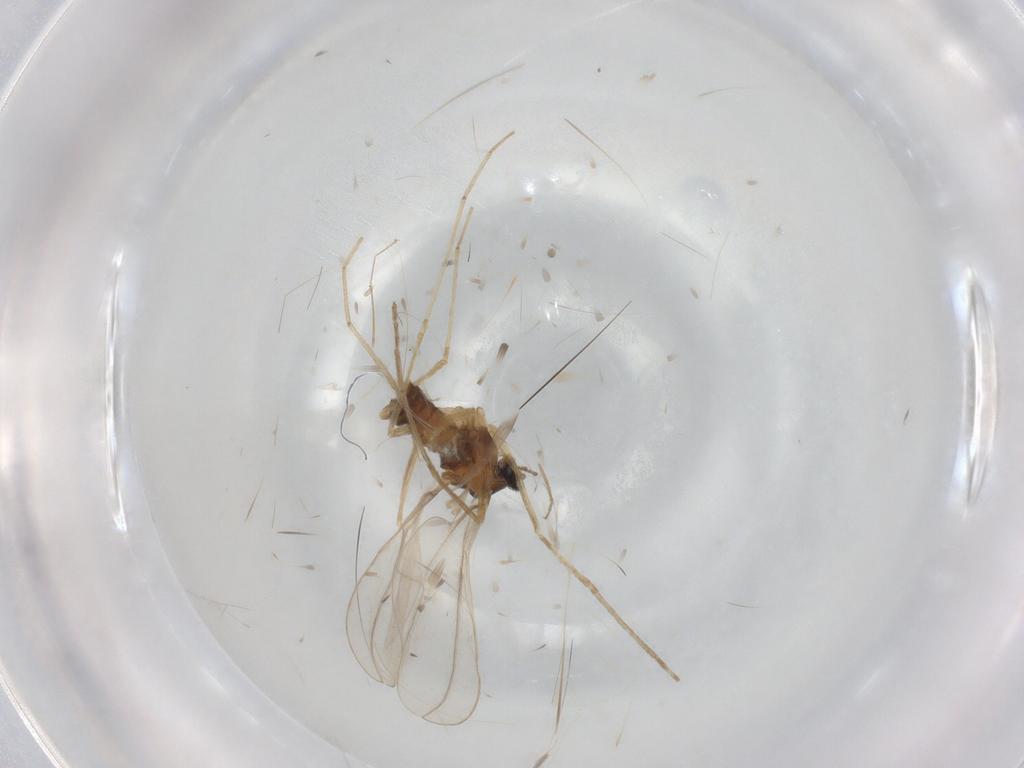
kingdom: Animalia
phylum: Arthropoda
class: Insecta
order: Diptera
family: Cecidomyiidae
